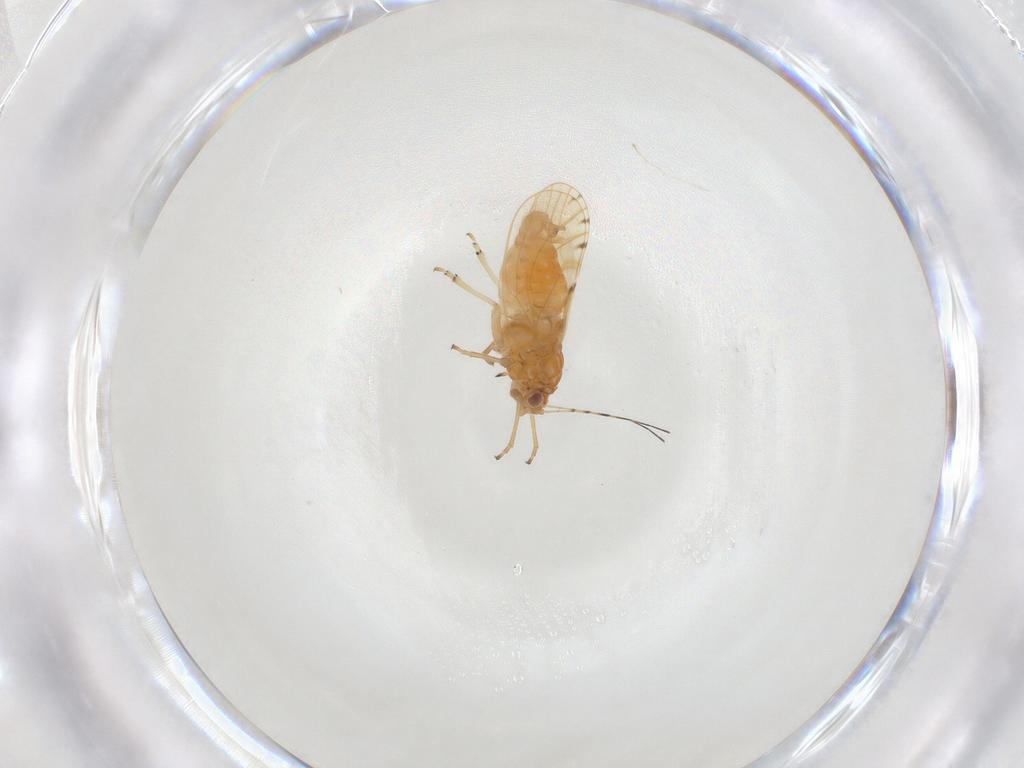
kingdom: Animalia
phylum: Arthropoda
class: Insecta
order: Hemiptera
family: Psylloidea_incertae_sedis
